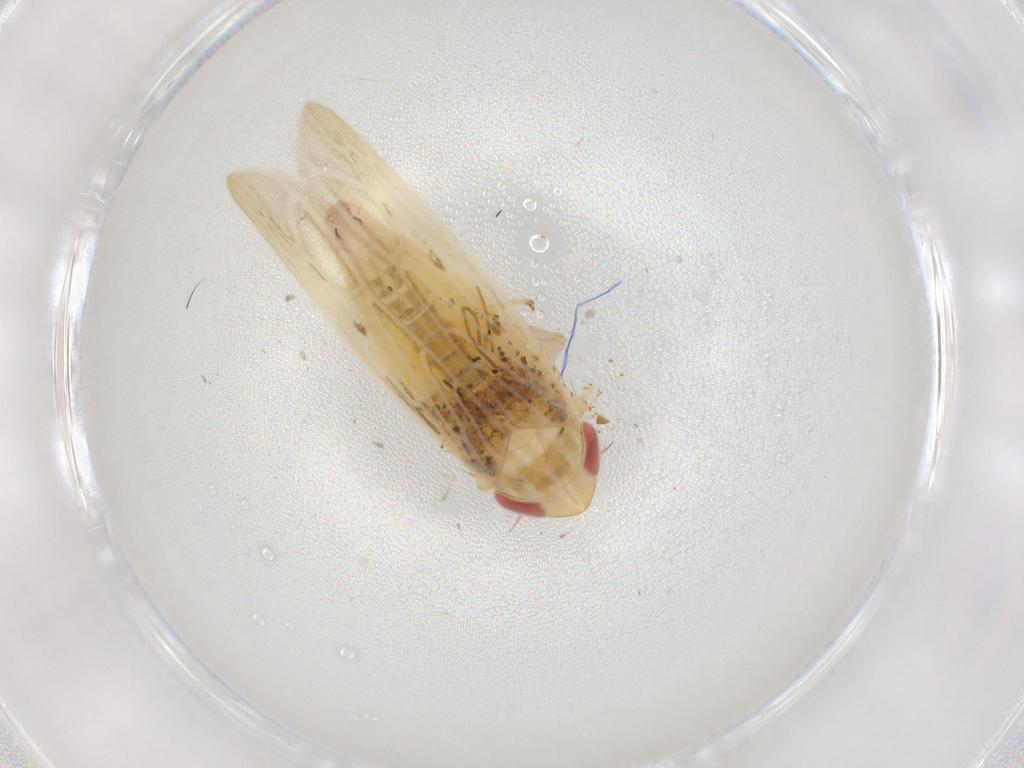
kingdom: Animalia
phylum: Arthropoda
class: Insecta
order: Hemiptera
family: Cicadellidae
